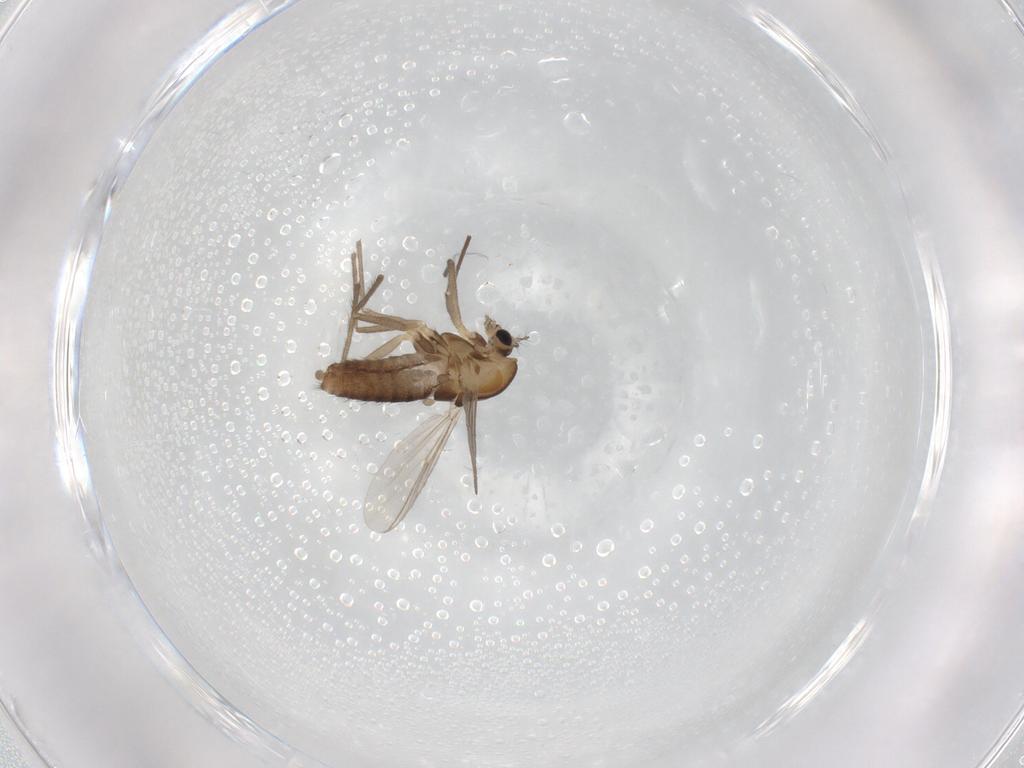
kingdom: Animalia
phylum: Arthropoda
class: Insecta
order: Diptera
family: Chironomidae
